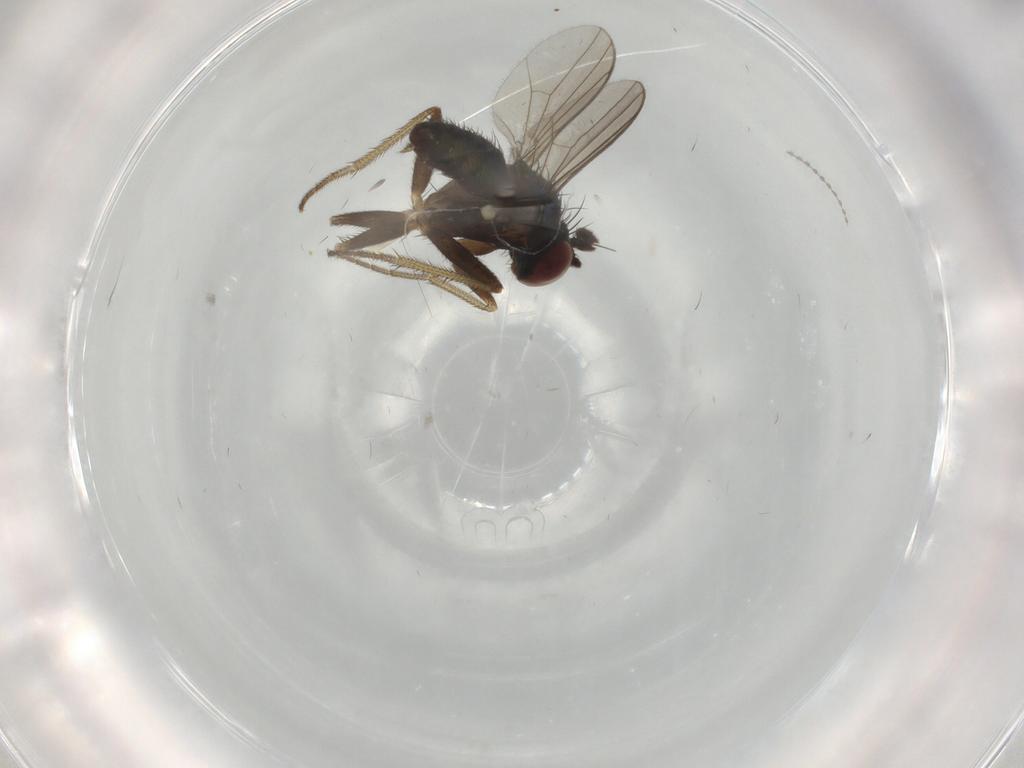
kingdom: Animalia
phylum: Arthropoda
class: Insecta
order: Diptera
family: Dolichopodidae
